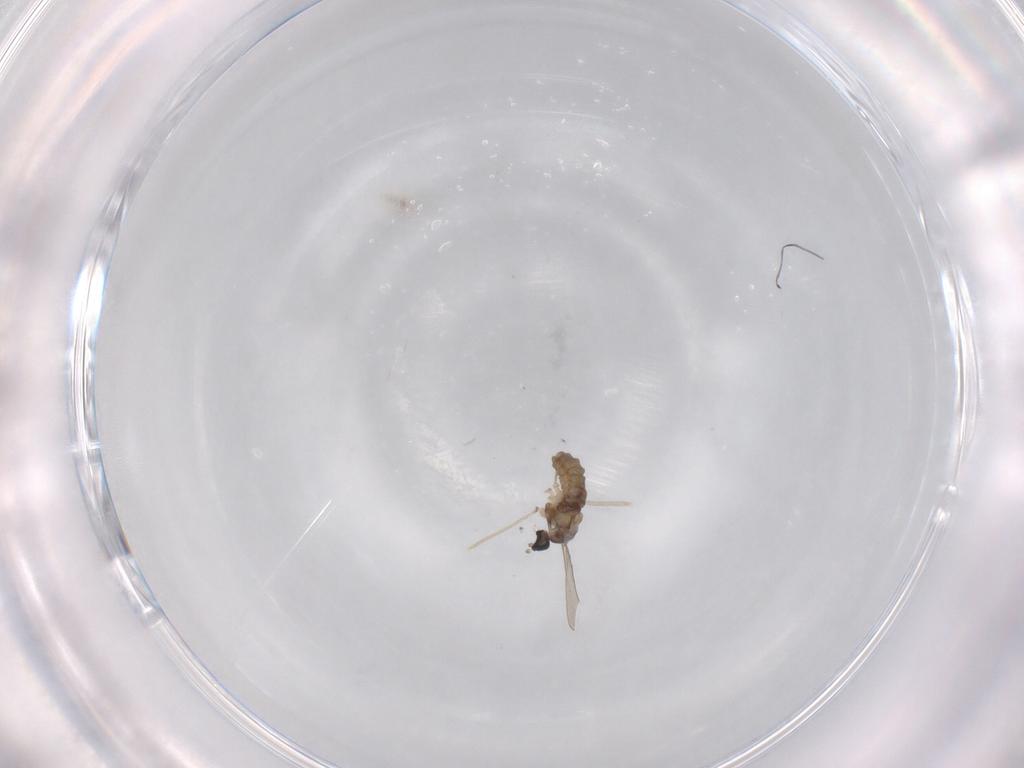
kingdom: Animalia
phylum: Arthropoda
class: Insecta
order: Diptera
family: Cecidomyiidae
